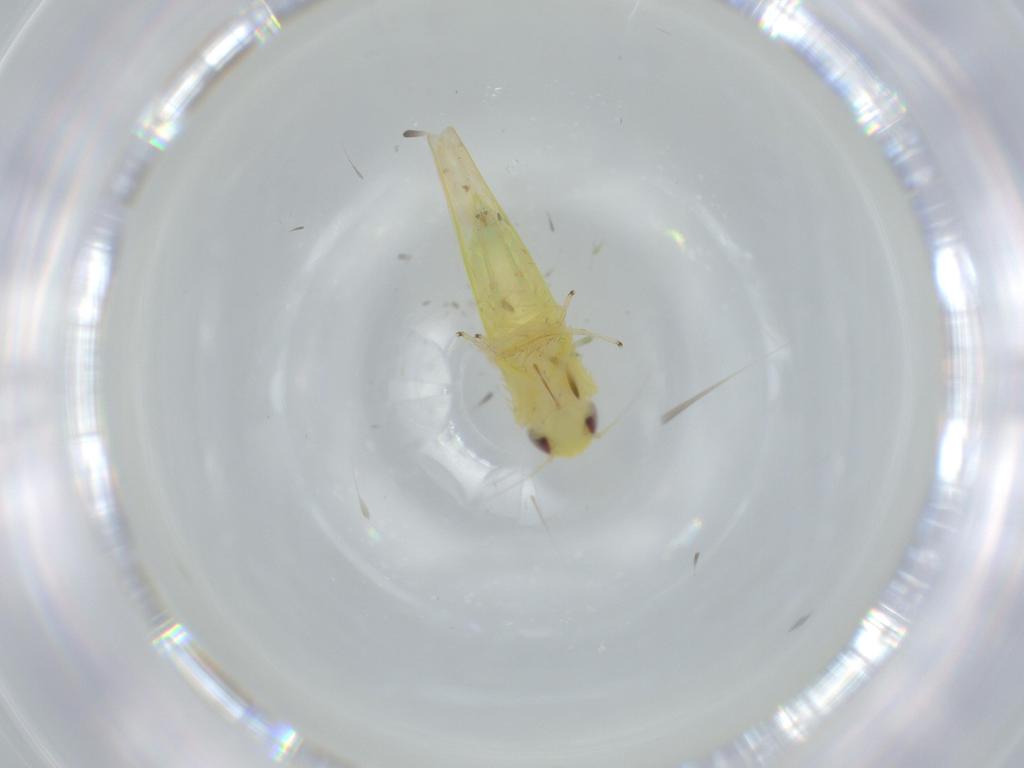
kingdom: Animalia
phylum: Arthropoda
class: Insecta
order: Hemiptera
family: Cicadellidae
